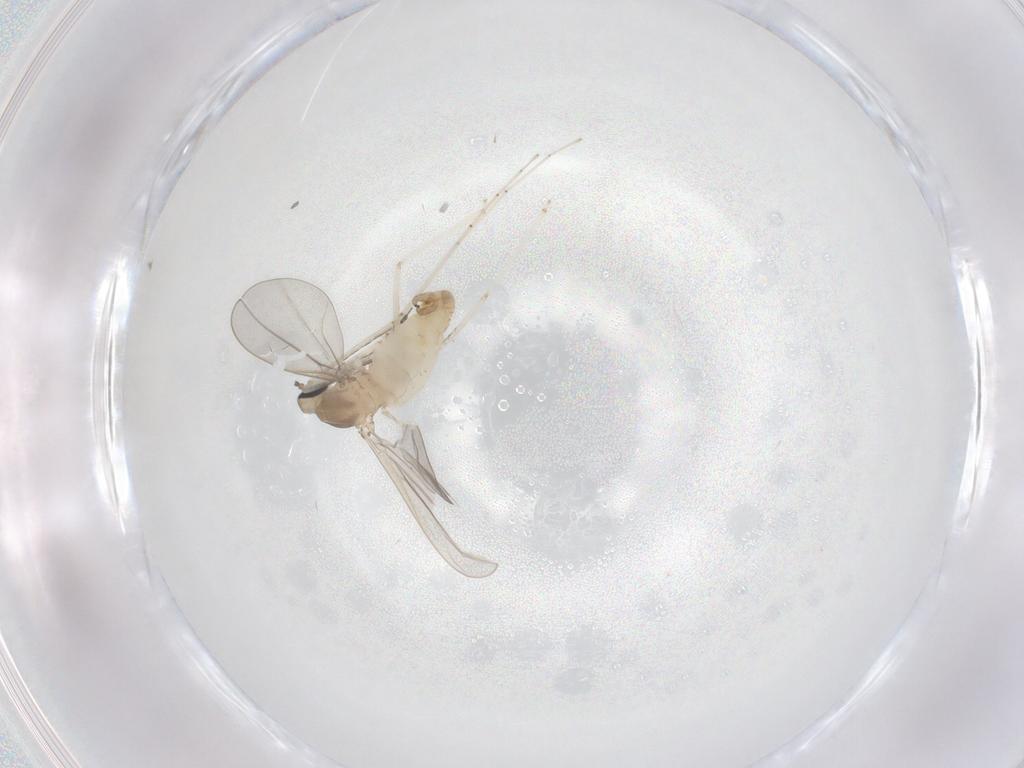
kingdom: Animalia
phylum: Arthropoda
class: Insecta
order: Diptera
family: Cecidomyiidae
